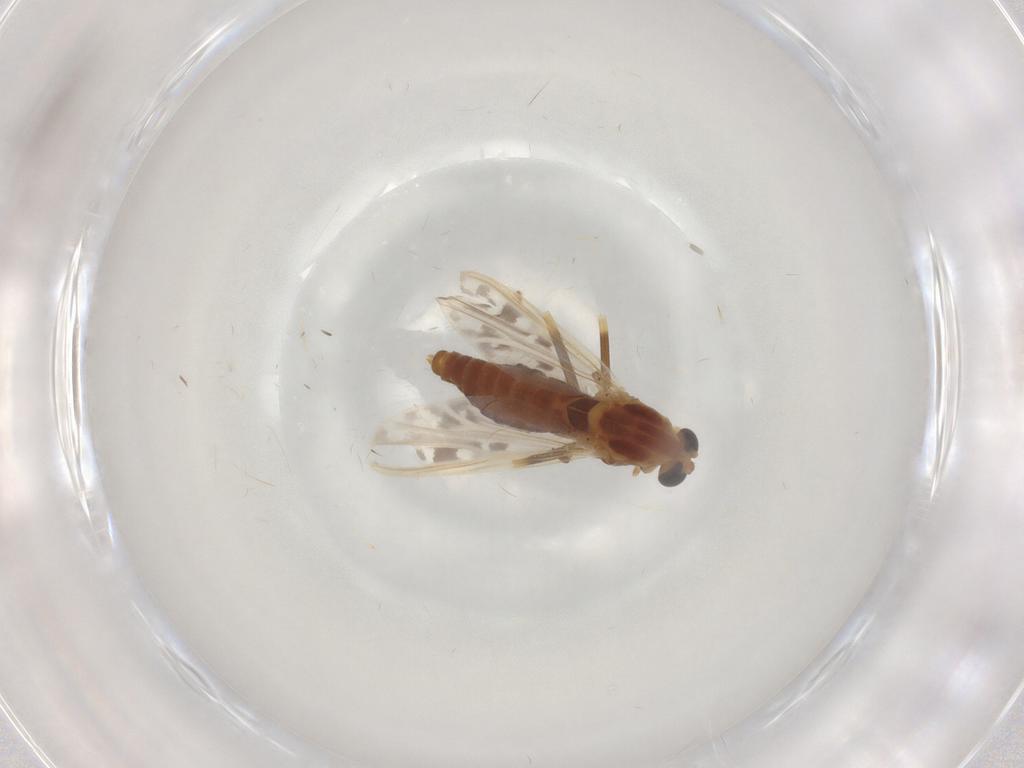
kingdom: Animalia
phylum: Arthropoda
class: Insecta
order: Diptera
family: Chironomidae
